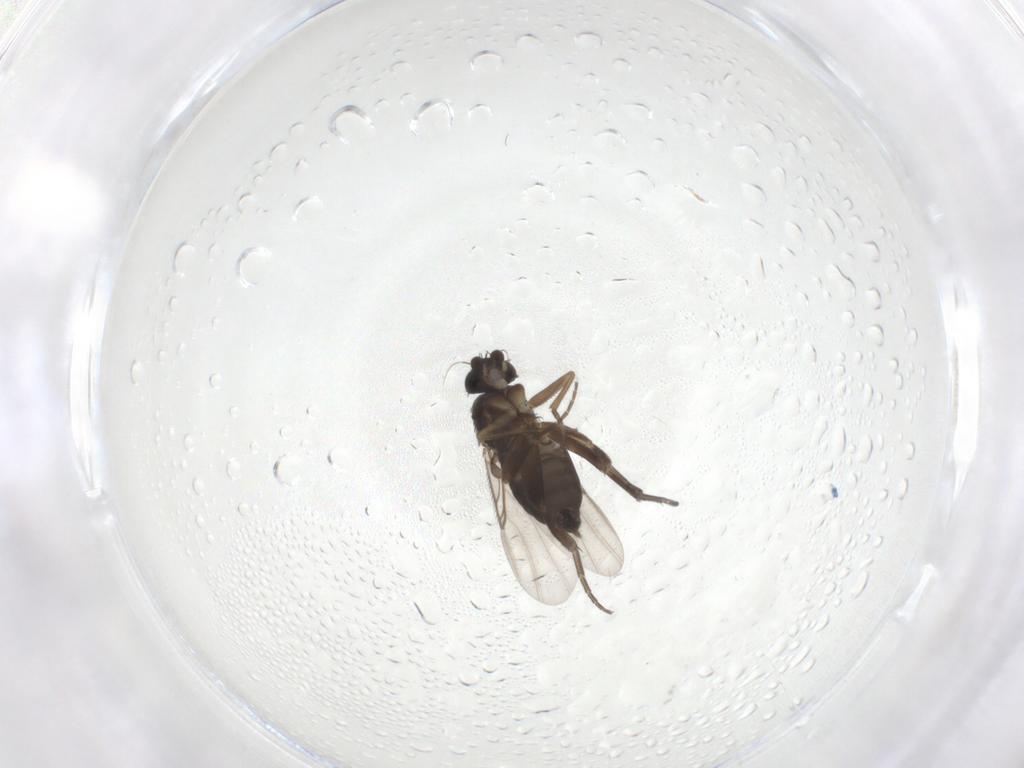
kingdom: Animalia
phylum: Arthropoda
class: Insecta
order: Diptera
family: Phoridae
